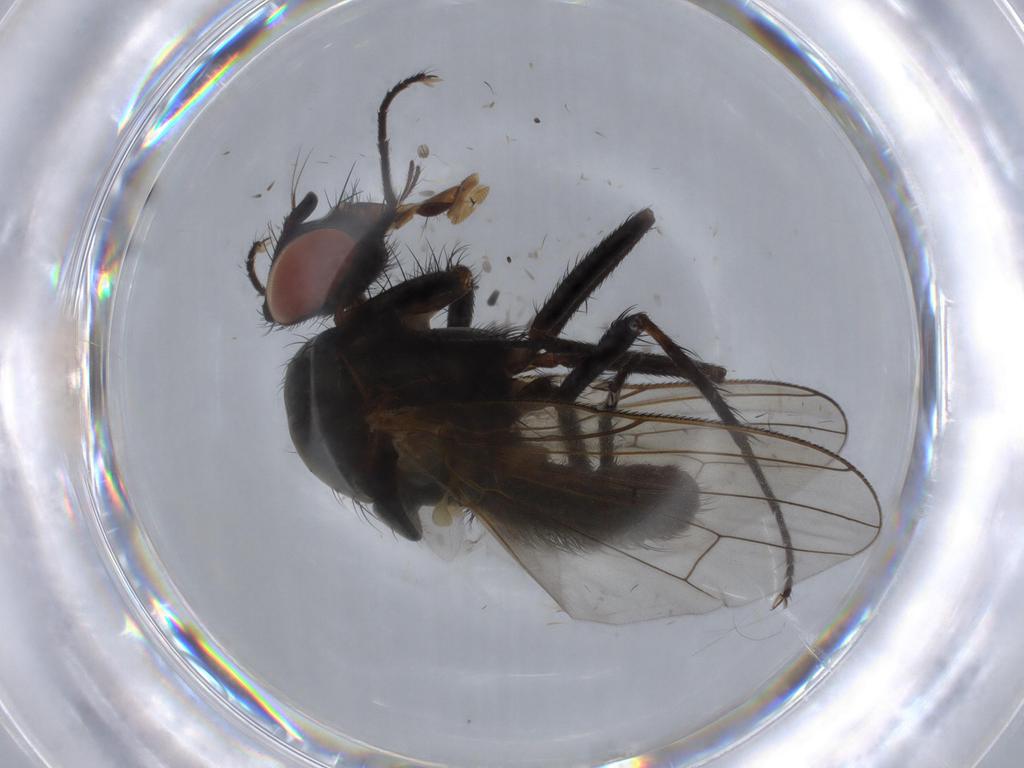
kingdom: Animalia
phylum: Arthropoda
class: Insecta
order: Diptera
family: Anthomyiidae
